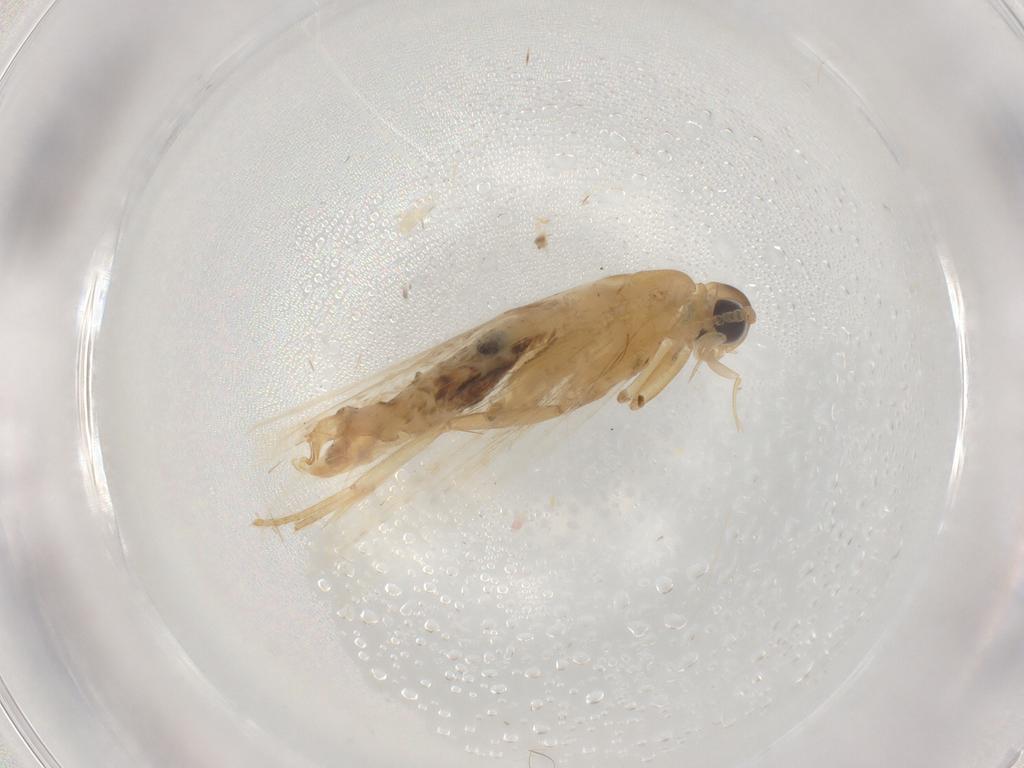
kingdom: Animalia
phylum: Arthropoda
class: Insecta
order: Lepidoptera
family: Lecithoceridae
